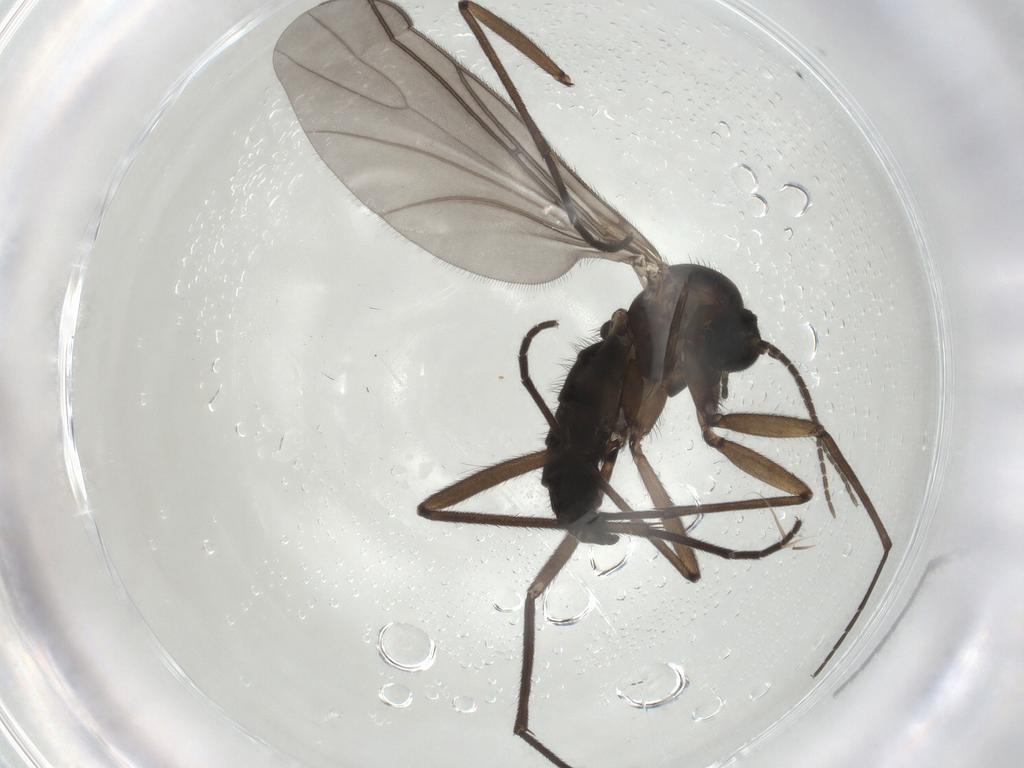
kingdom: Animalia
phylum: Arthropoda
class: Insecta
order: Diptera
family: Sciaridae
